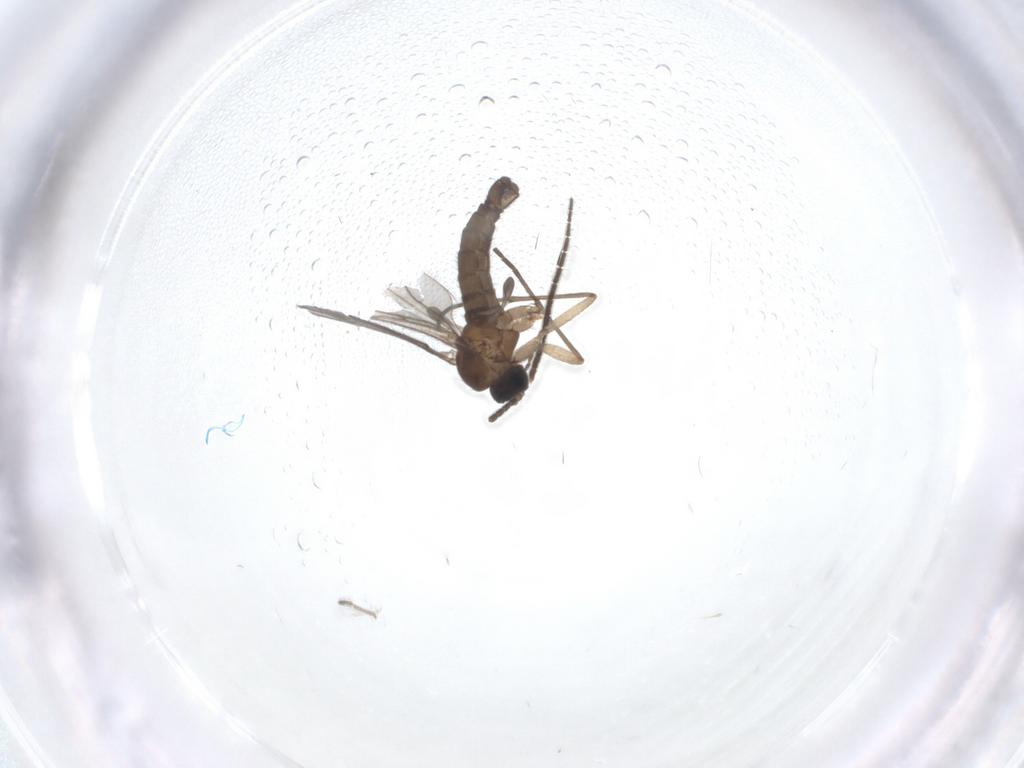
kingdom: Animalia
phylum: Arthropoda
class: Insecta
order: Diptera
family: Sciaridae
